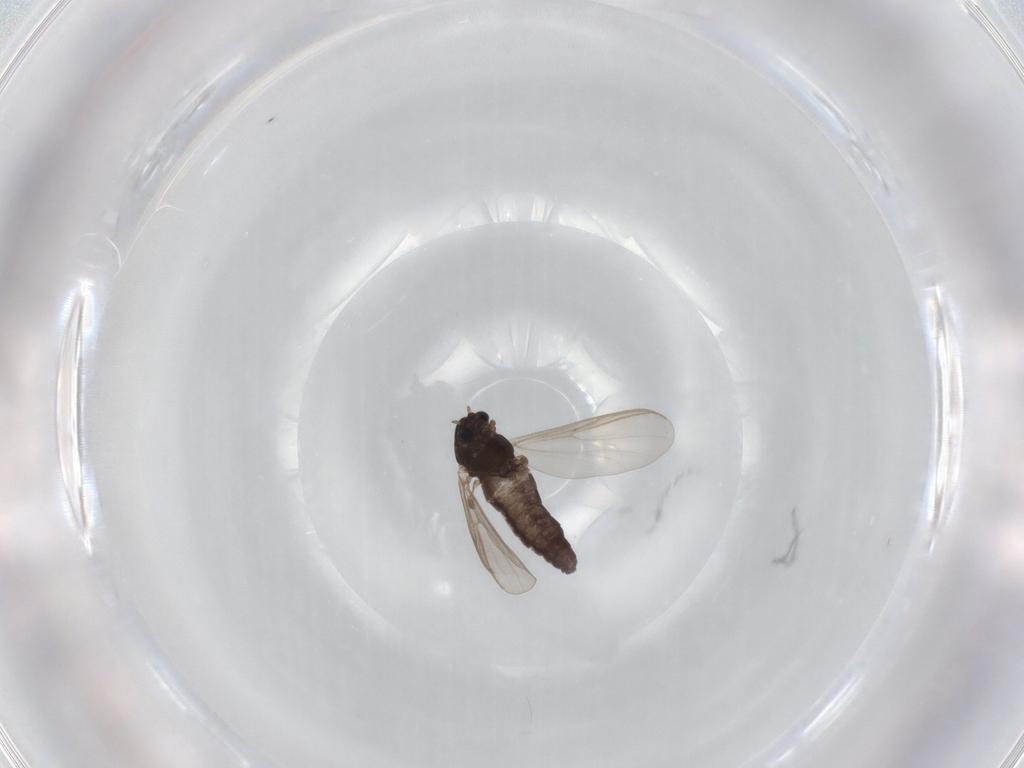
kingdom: Animalia
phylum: Arthropoda
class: Insecta
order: Diptera
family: Chironomidae
